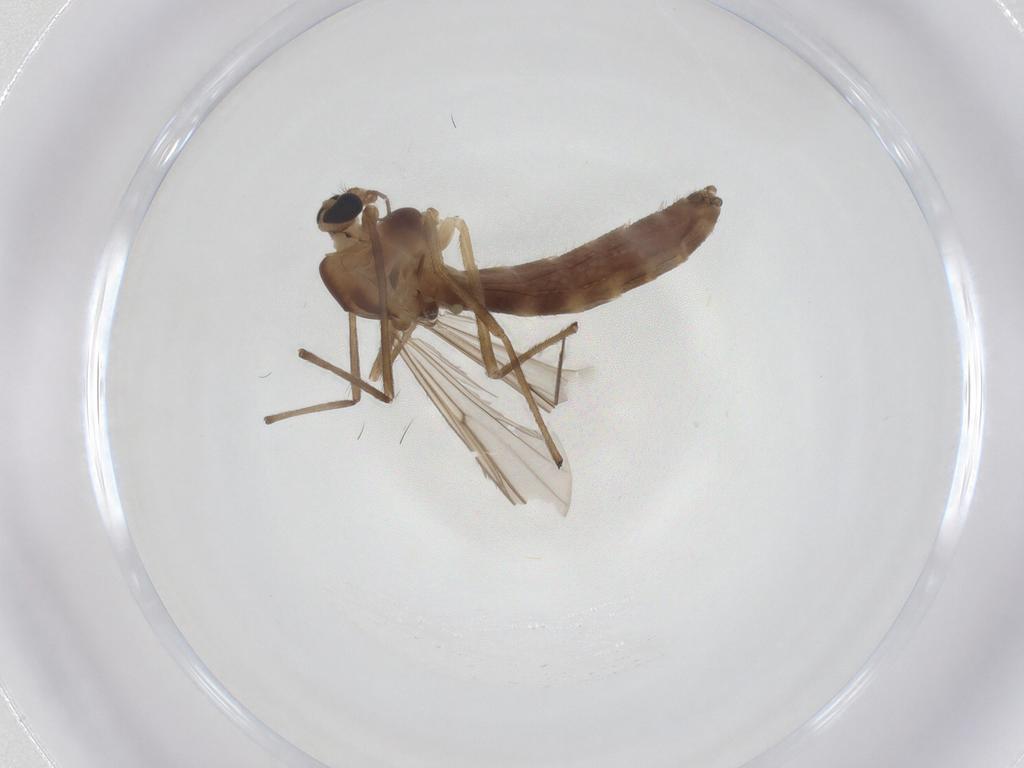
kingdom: Animalia
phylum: Arthropoda
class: Insecta
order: Diptera
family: Chironomidae
